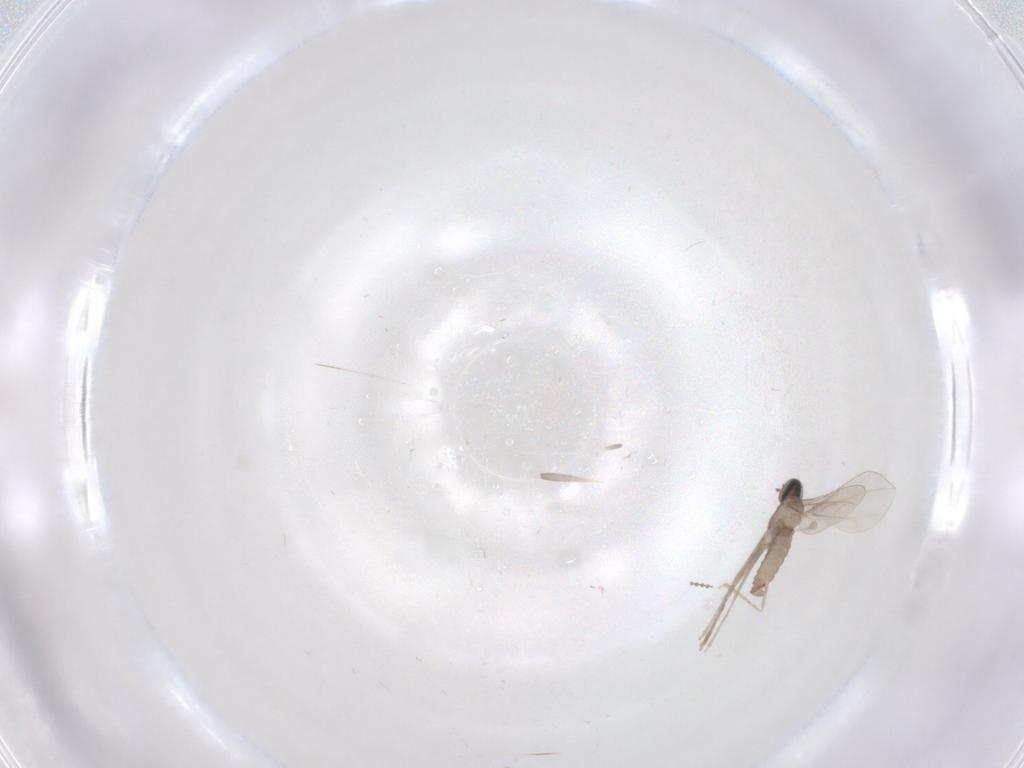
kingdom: Animalia
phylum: Arthropoda
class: Insecta
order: Diptera
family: Cecidomyiidae
